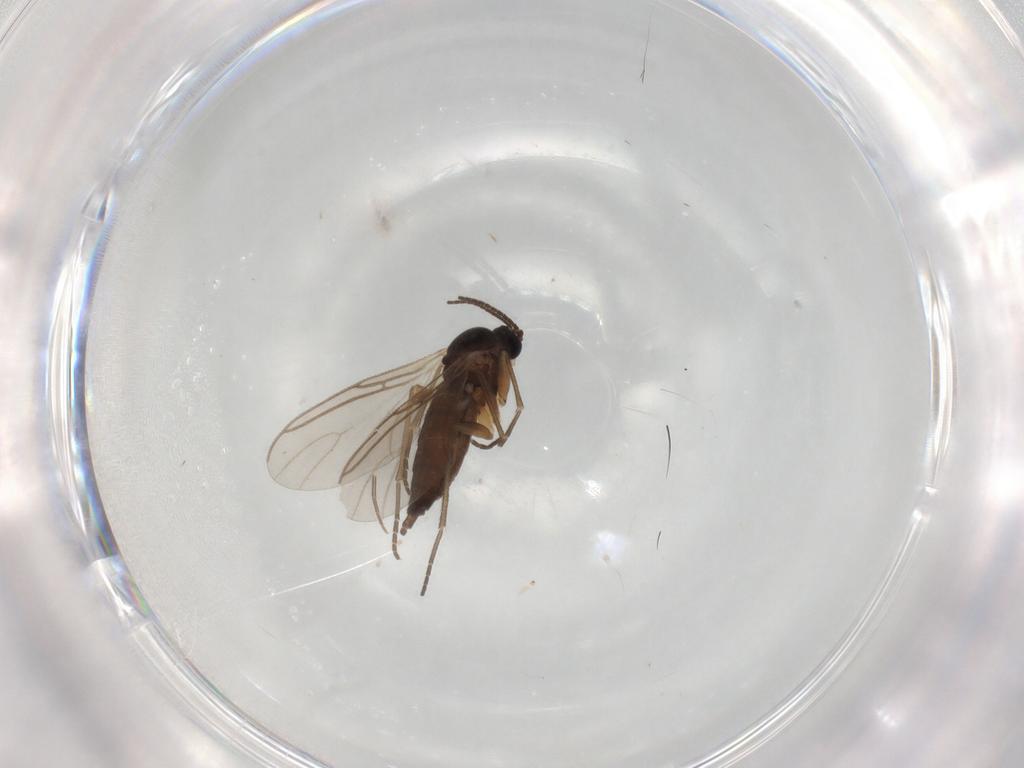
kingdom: Animalia
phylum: Arthropoda
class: Insecta
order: Diptera
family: Sciaridae
